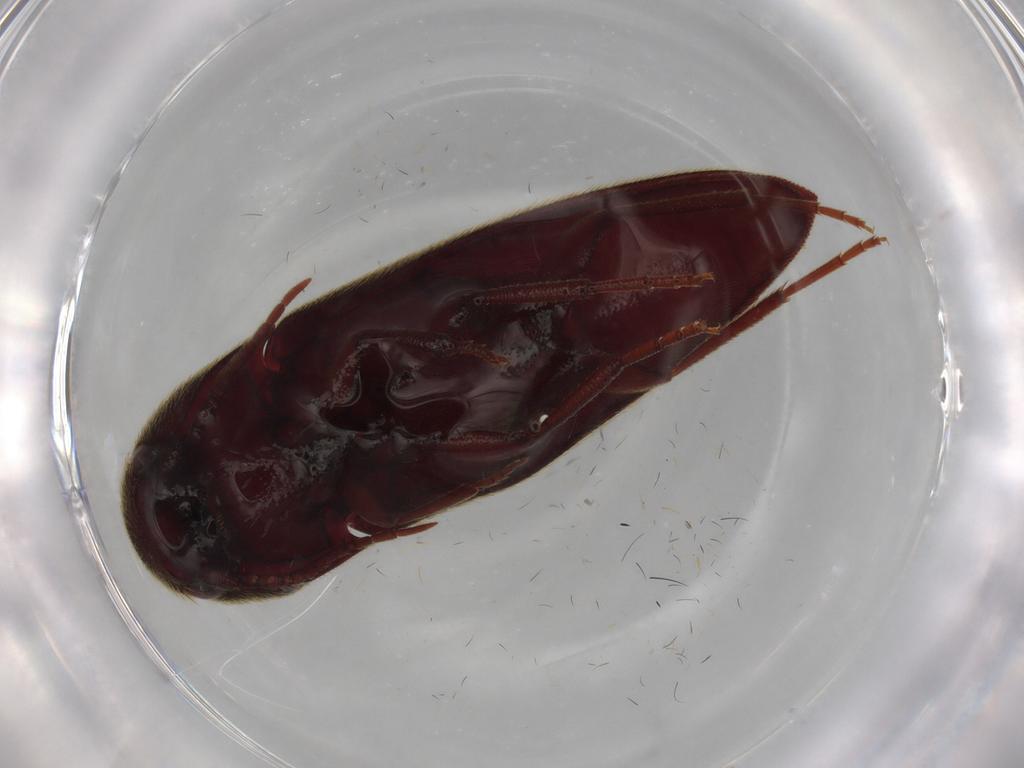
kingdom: Animalia
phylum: Arthropoda
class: Insecta
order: Coleoptera
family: Eucnemidae
